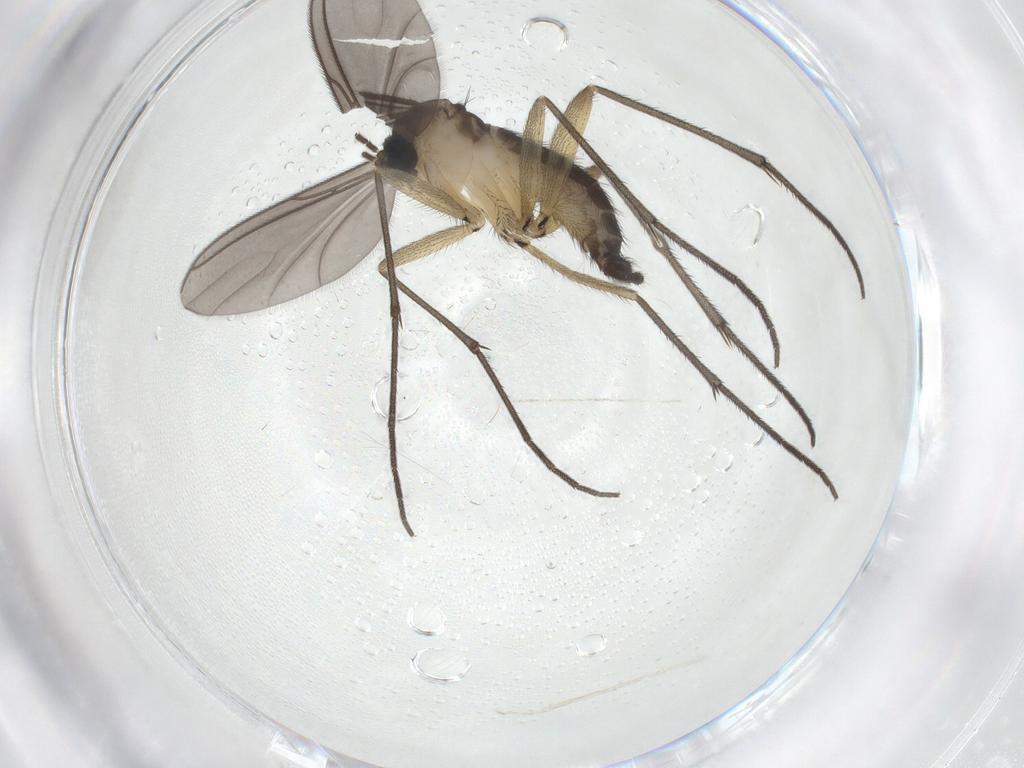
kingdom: Animalia
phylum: Arthropoda
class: Insecta
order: Diptera
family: Sciaridae
